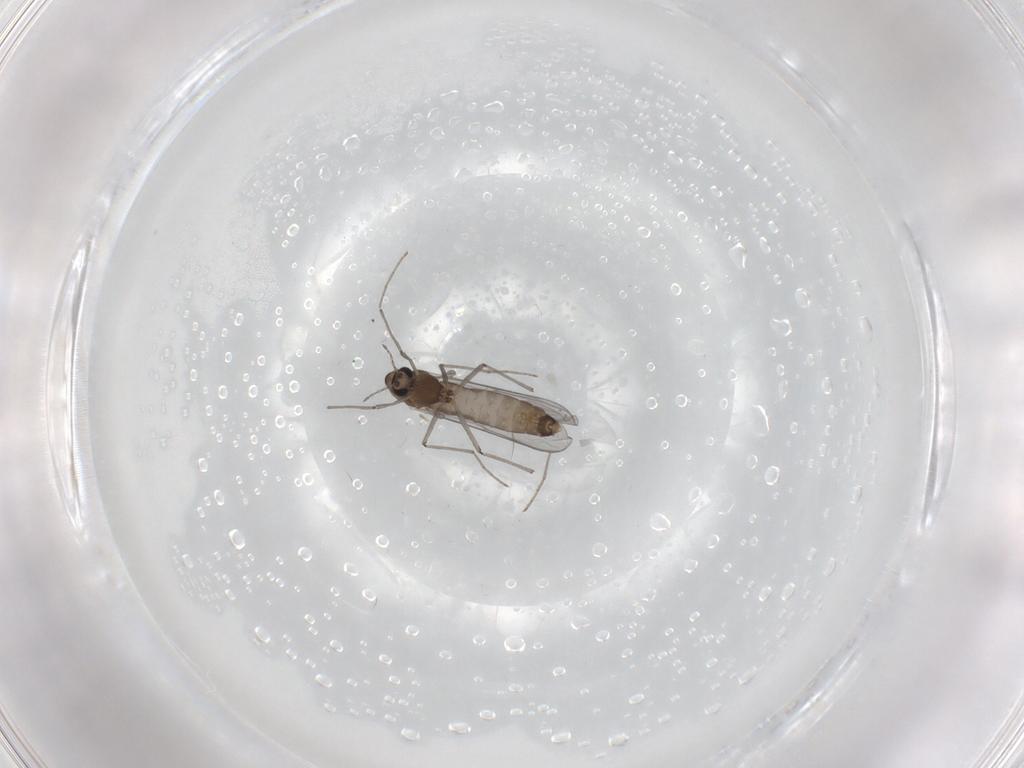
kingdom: Animalia
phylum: Arthropoda
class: Insecta
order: Diptera
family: Chironomidae
